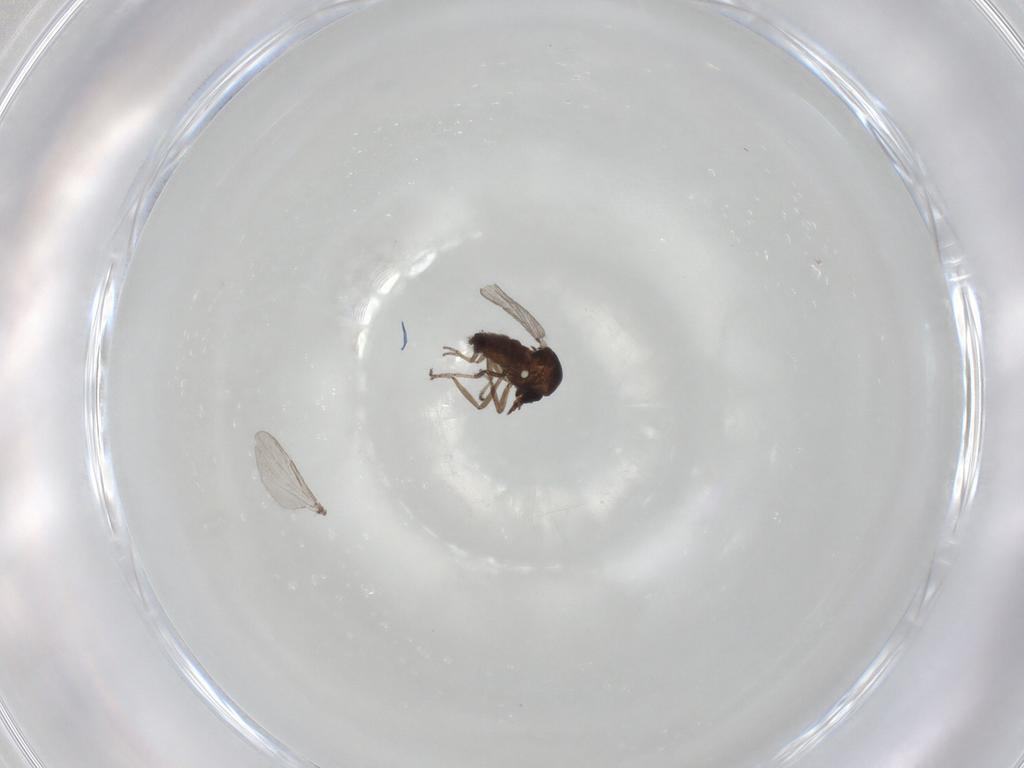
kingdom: Animalia
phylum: Arthropoda
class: Insecta
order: Diptera
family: Ceratopogonidae
